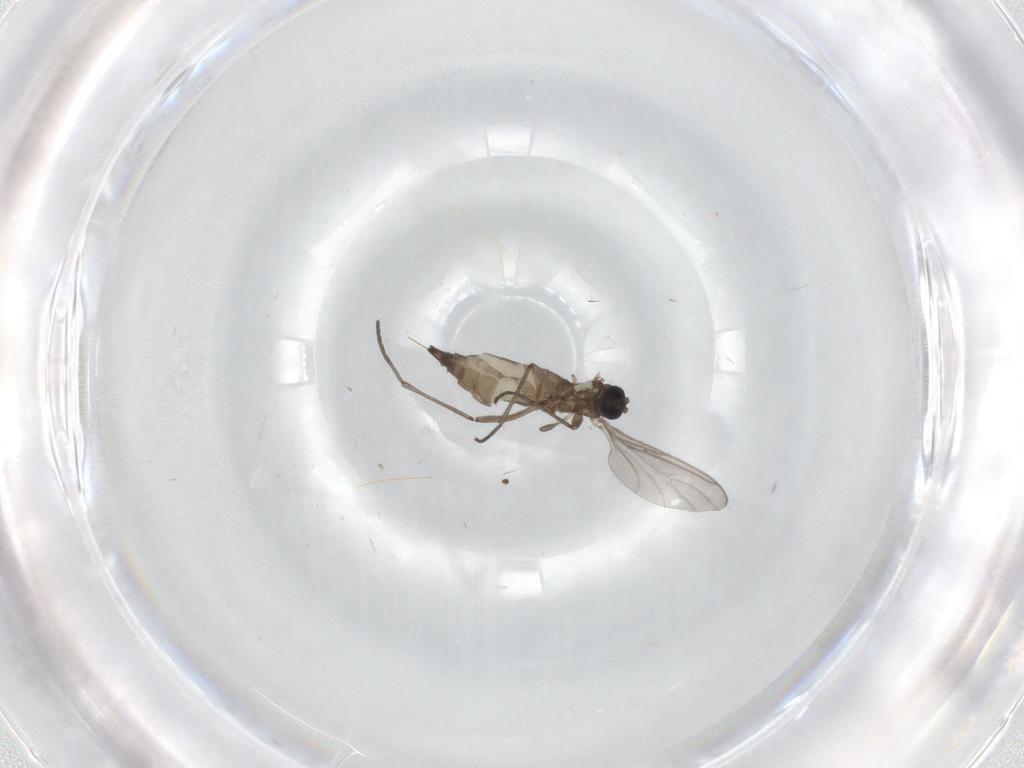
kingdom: Animalia
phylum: Arthropoda
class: Insecta
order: Diptera
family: Sciaridae
